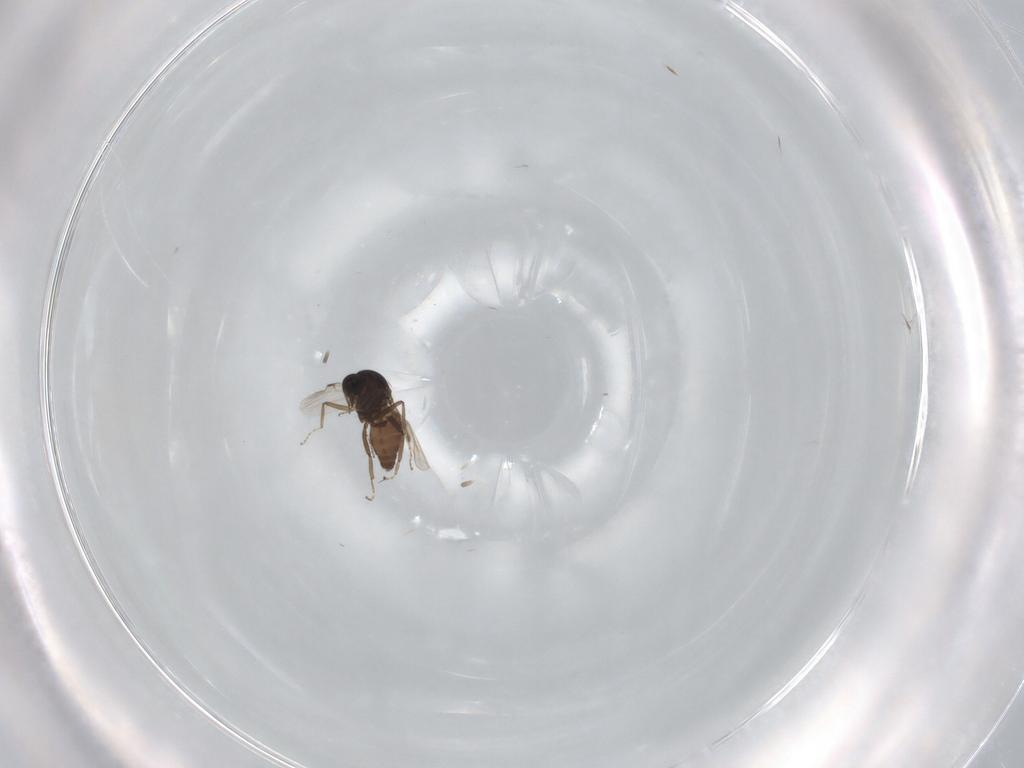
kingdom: Animalia
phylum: Arthropoda
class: Insecta
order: Diptera
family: Ceratopogonidae
